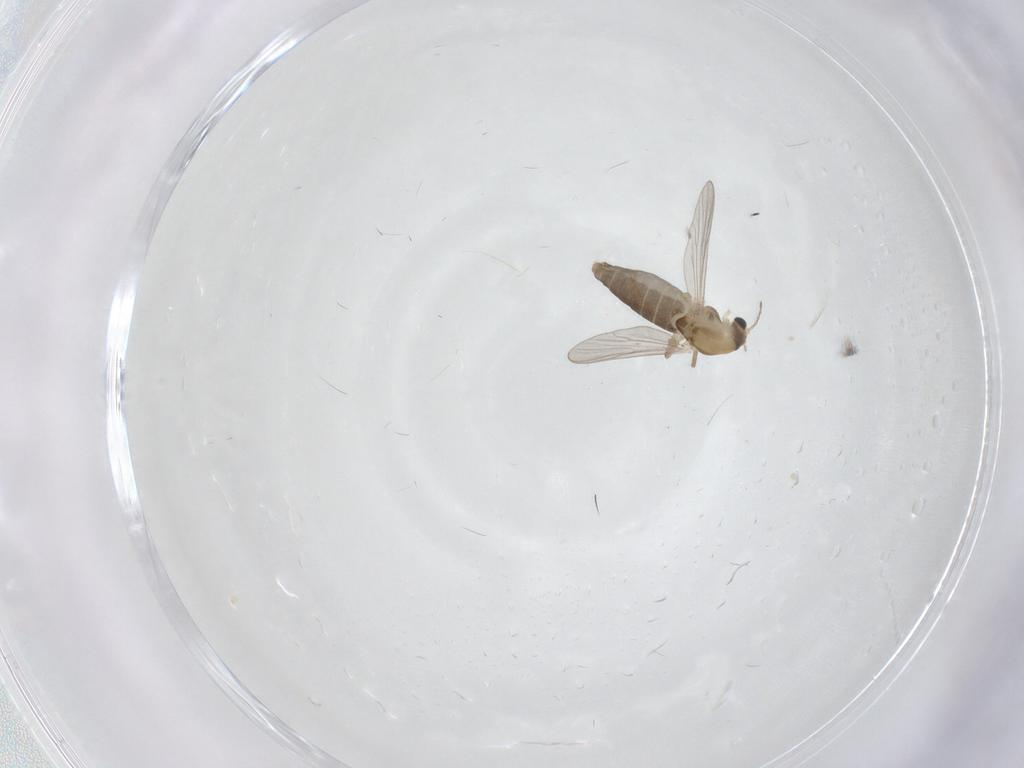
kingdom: Animalia
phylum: Arthropoda
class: Insecta
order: Diptera
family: Chironomidae
